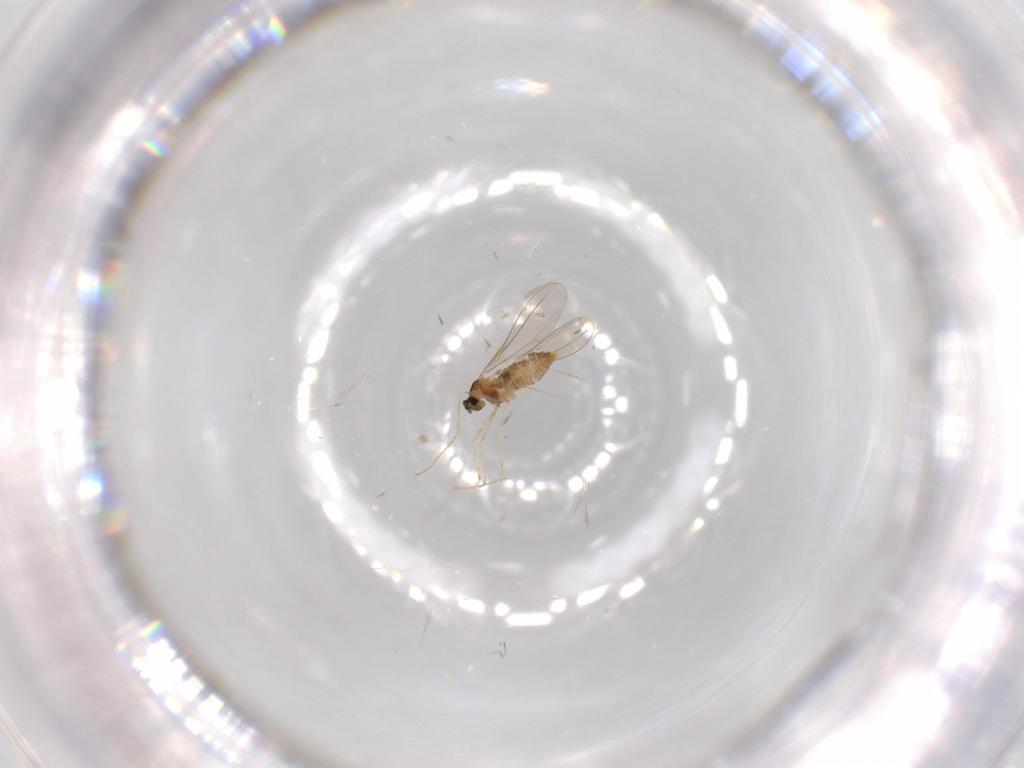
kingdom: Animalia
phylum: Arthropoda
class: Insecta
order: Diptera
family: Cecidomyiidae
